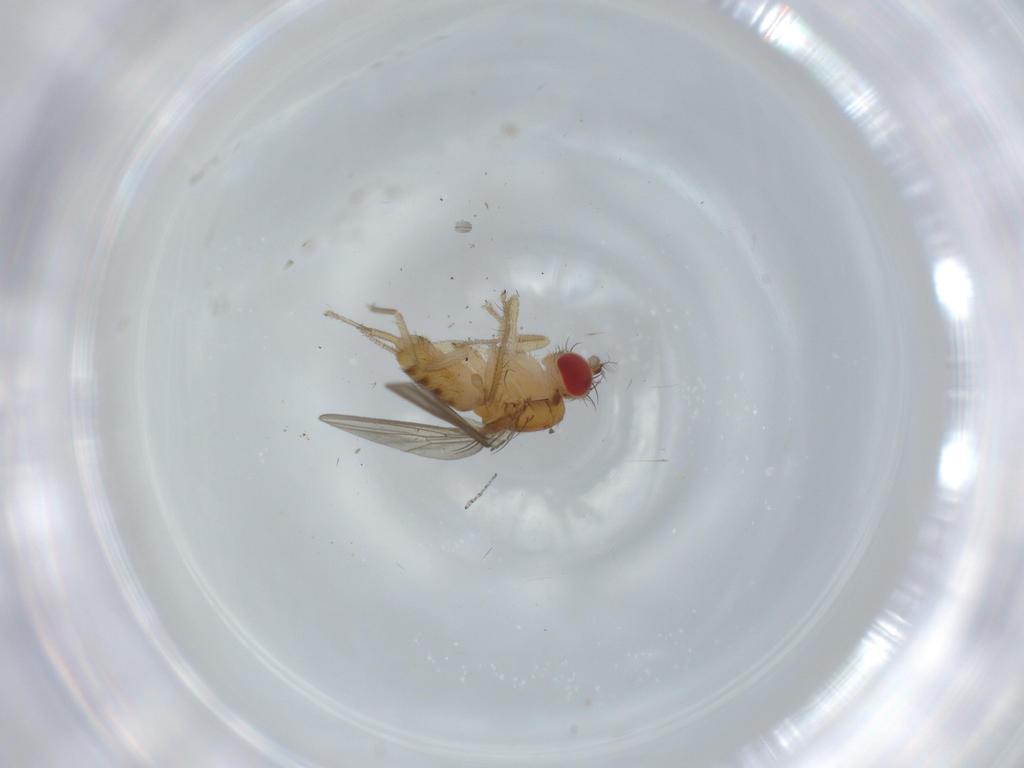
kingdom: Animalia
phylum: Arthropoda
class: Insecta
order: Diptera
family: Drosophilidae
